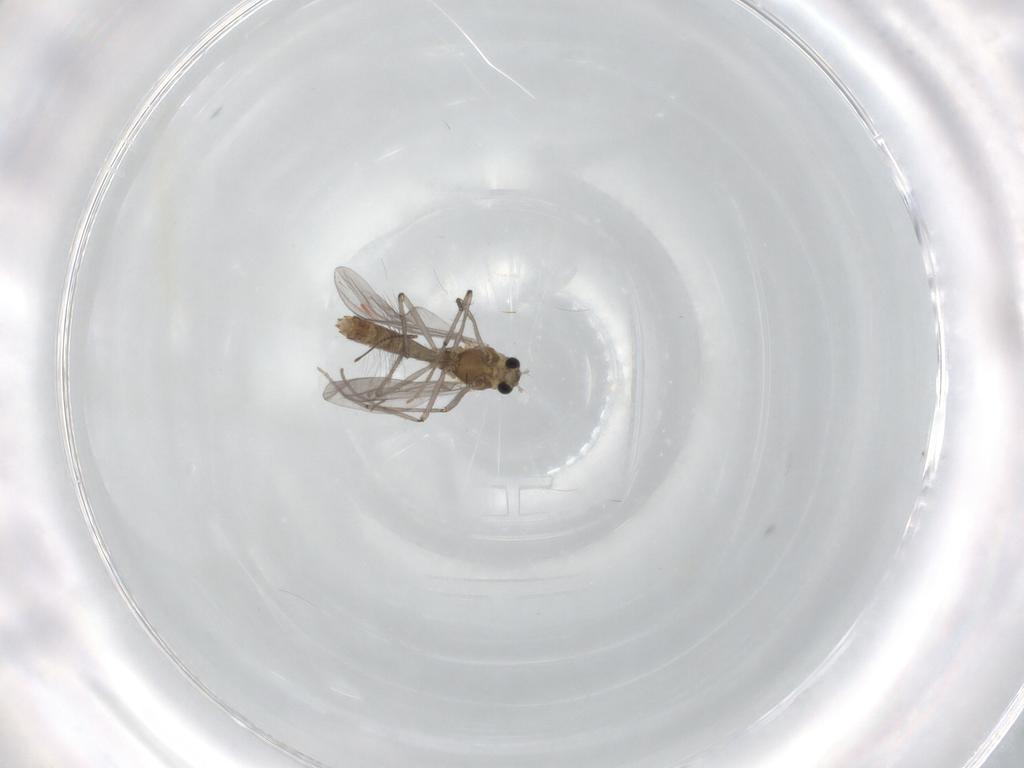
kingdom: Animalia
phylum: Arthropoda
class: Insecta
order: Diptera
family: Chironomidae
